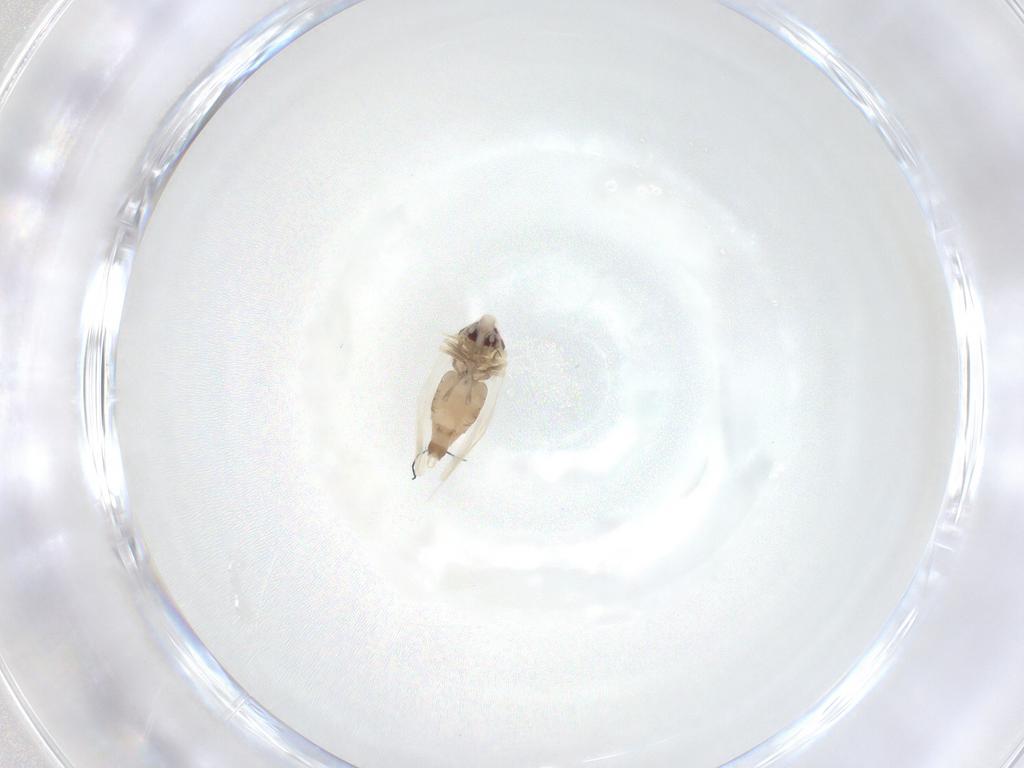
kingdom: Animalia
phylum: Arthropoda
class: Insecta
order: Hemiptera
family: Aleyrodidae
